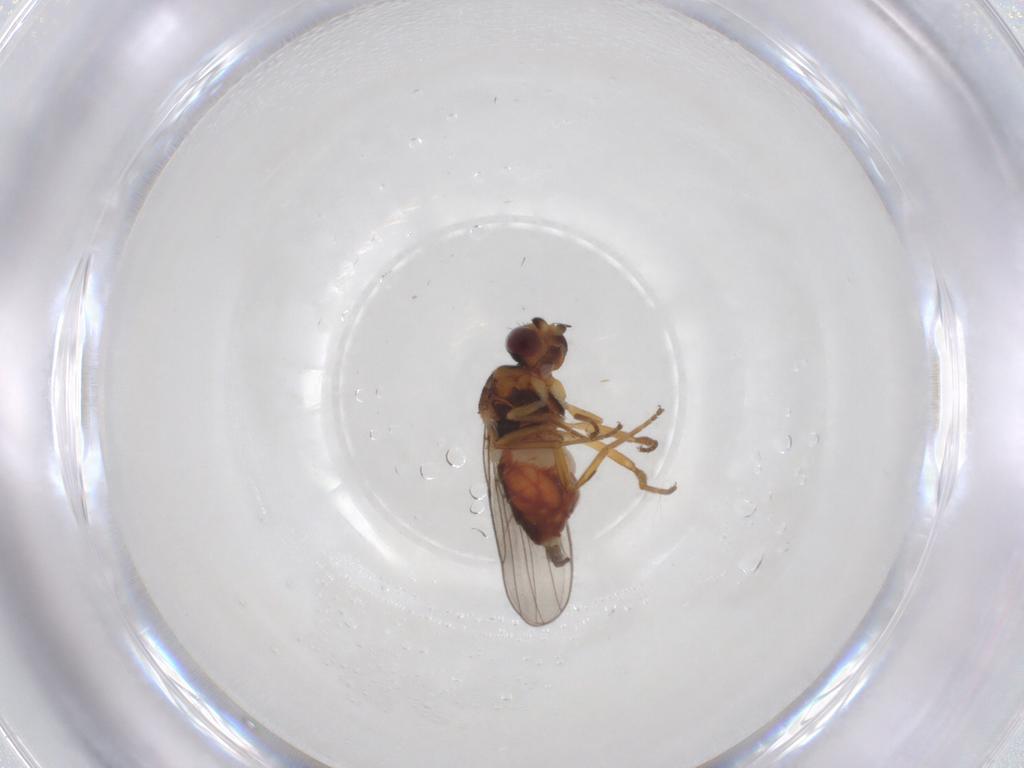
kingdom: Animalia
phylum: Arthropoda
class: Insecta
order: Diptera
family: Chloropidae
